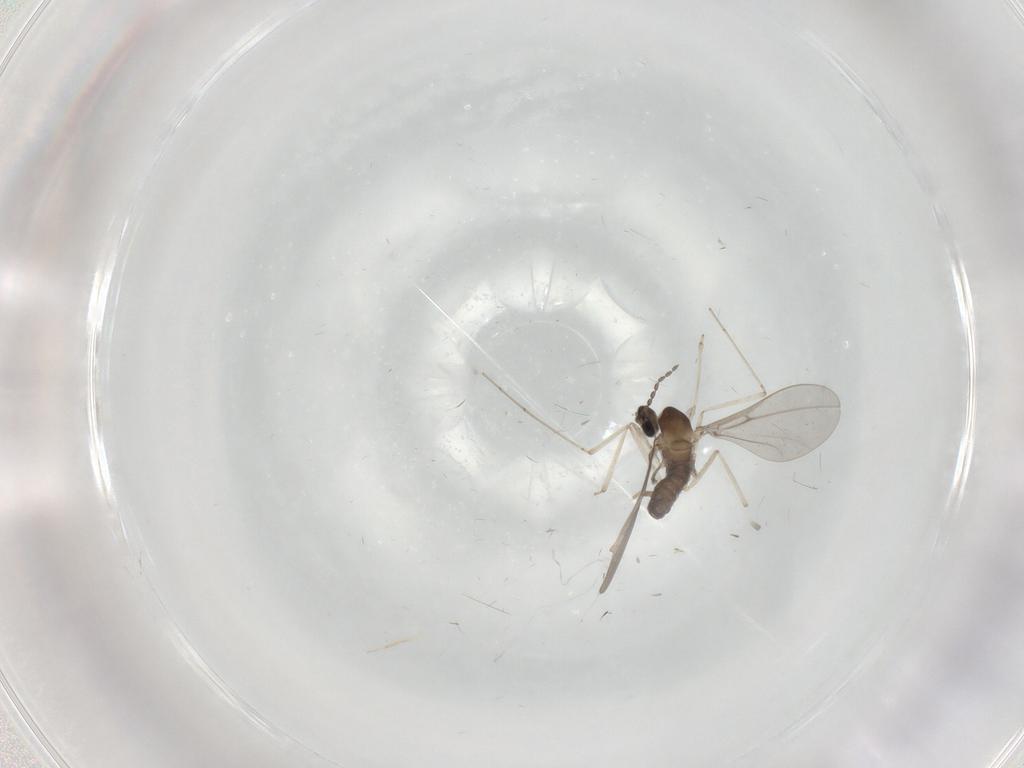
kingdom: Animalia
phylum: Arthropoda
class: Insecta
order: Diptera
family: Cecidomyiidae
